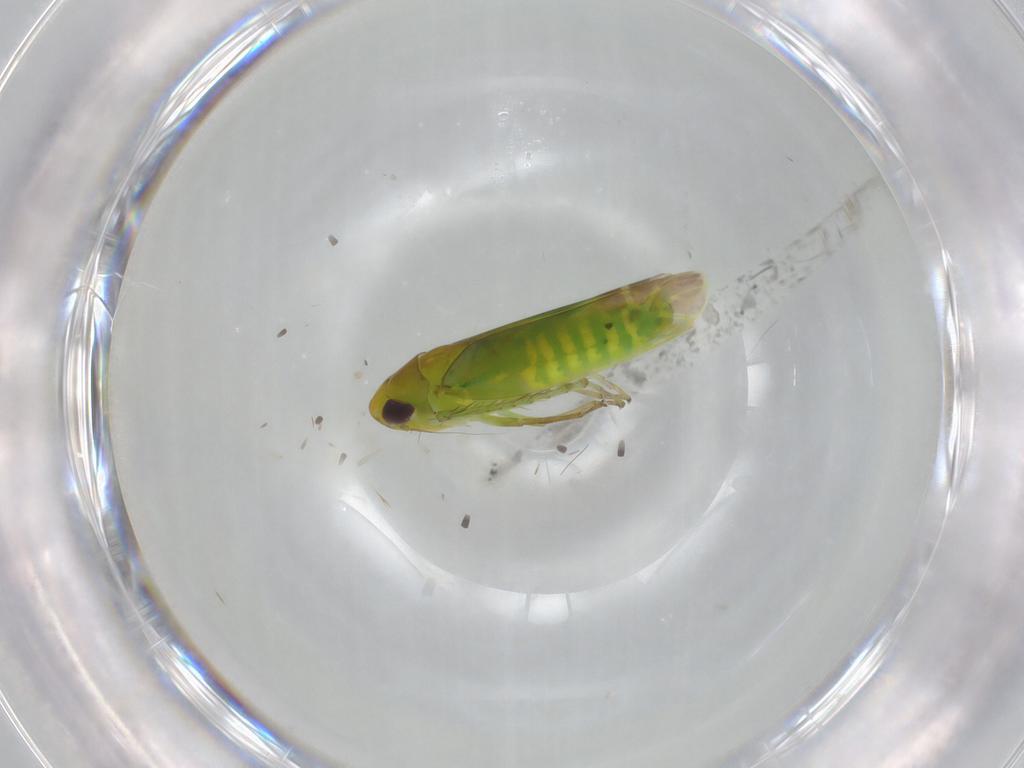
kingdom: Animalia
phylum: Arthropoda
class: Insecta
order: Hemiptera
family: Cicadellidae
